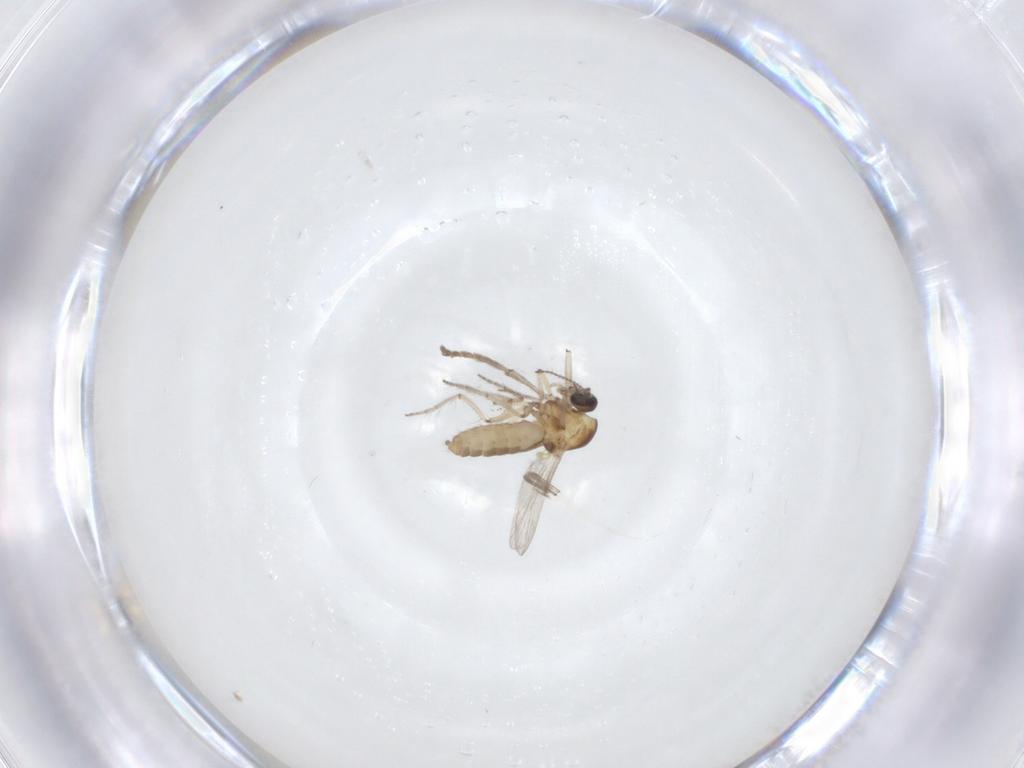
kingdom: Animalia
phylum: Arthropoda
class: Insecta
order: Diptera
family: Ceratopogonidae
